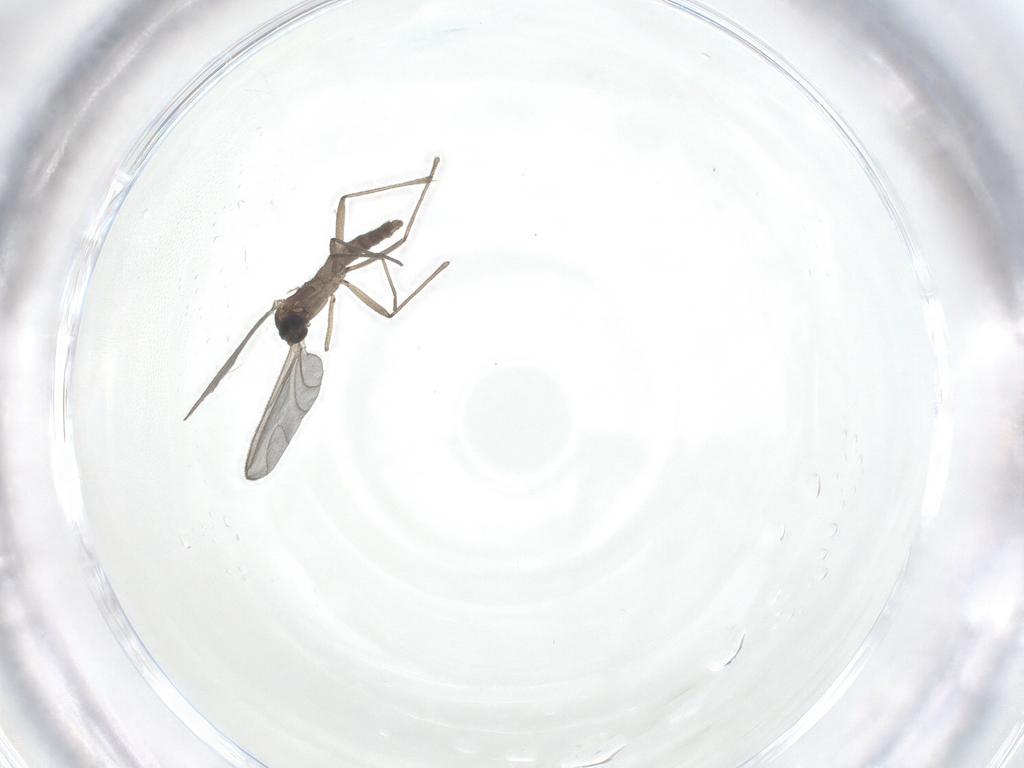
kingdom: Animalia
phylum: Arthropoda
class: Insecta
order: Diptera
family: Sciaridae
